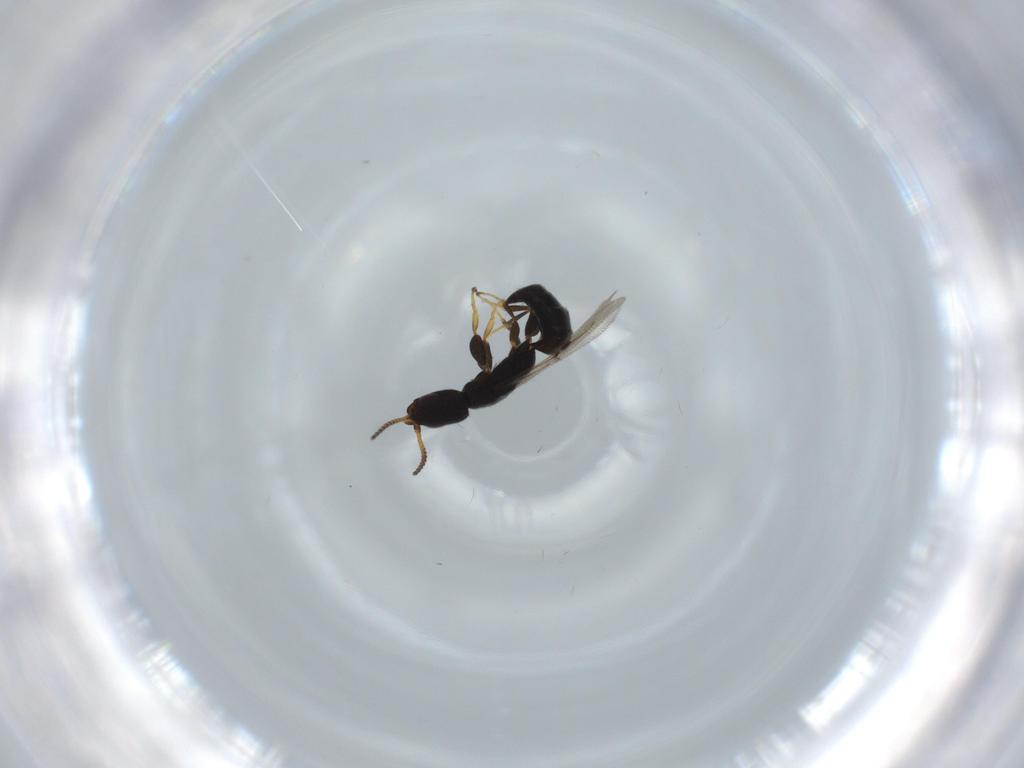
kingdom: Animalia
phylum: Arthropoda
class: Insecta
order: Hymenoptera
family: Bethylidae
